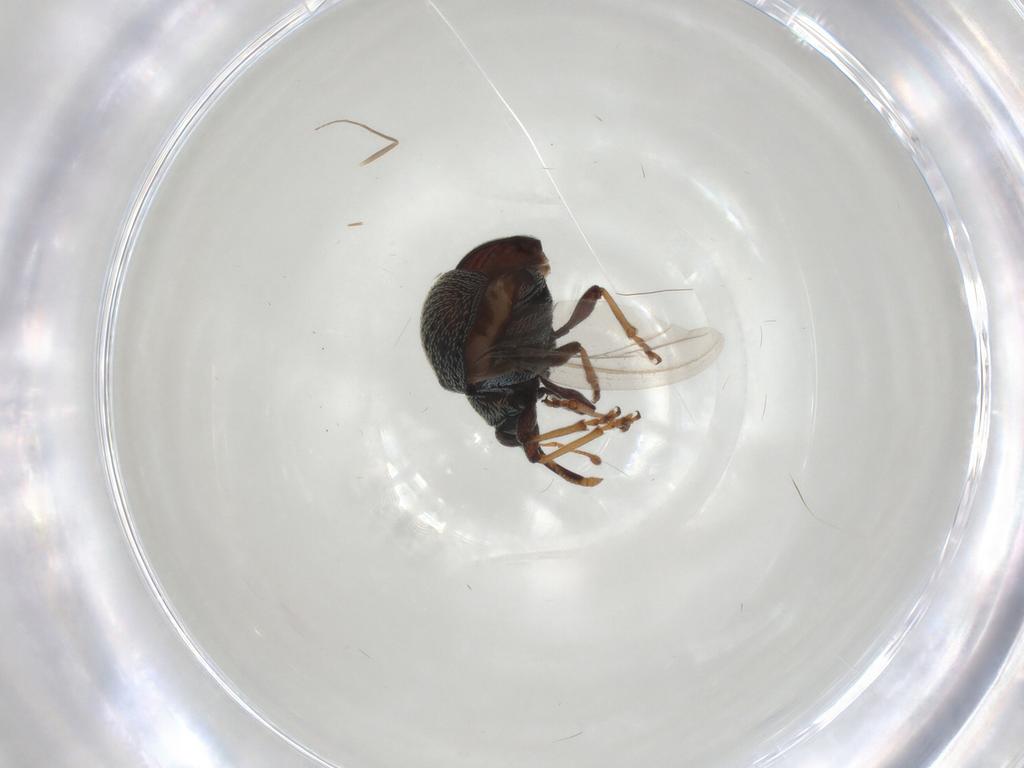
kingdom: Animalia
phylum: Arthropoda
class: Insecta
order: Coleoptera
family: Brentidae
